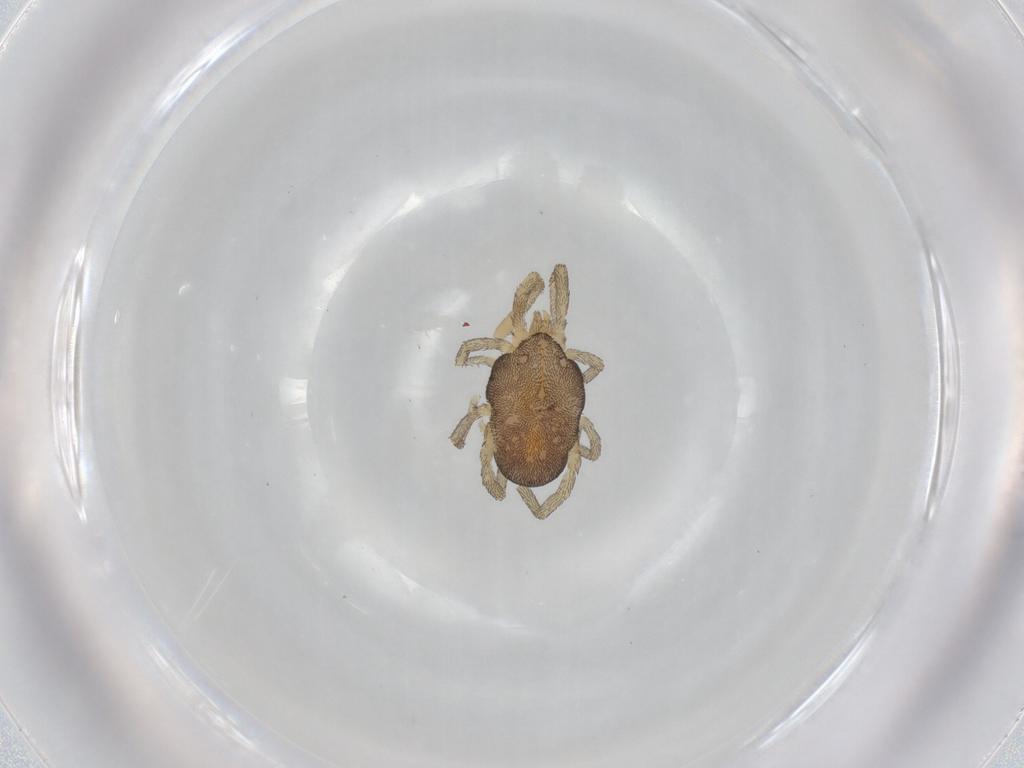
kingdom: Animalia
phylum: Arthropoda
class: Arachnida
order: Trombidiformes
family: Erythraeidae
